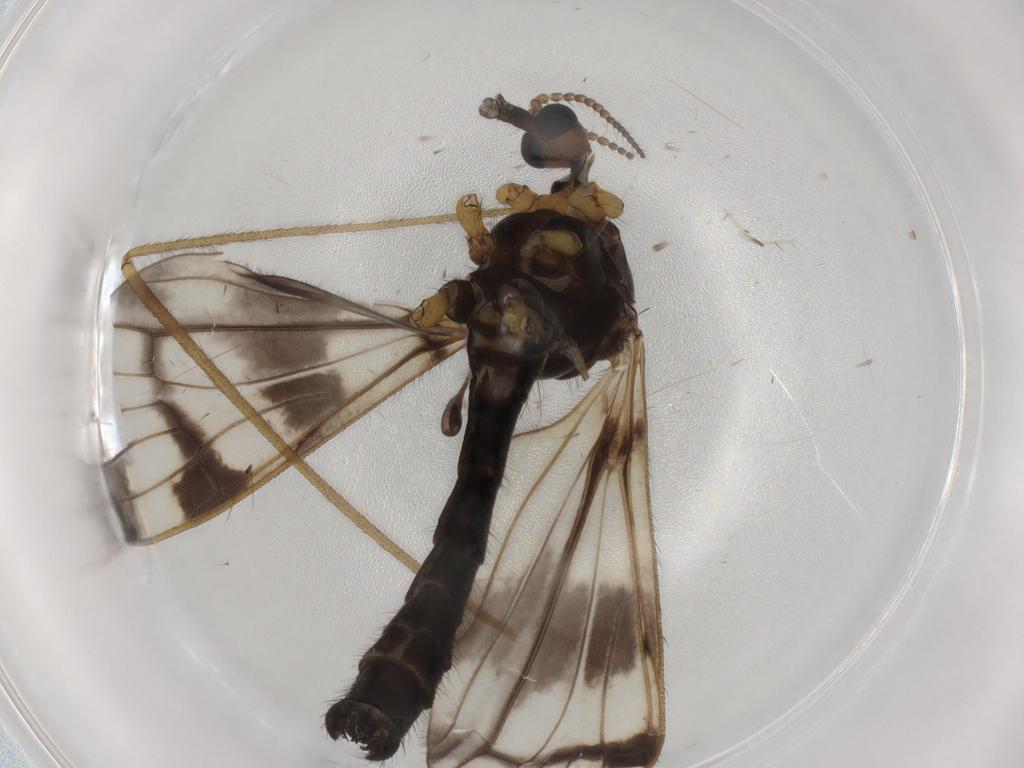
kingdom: Animalia
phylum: Arthropoda
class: Insecta
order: Diptera
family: Limoniidae
